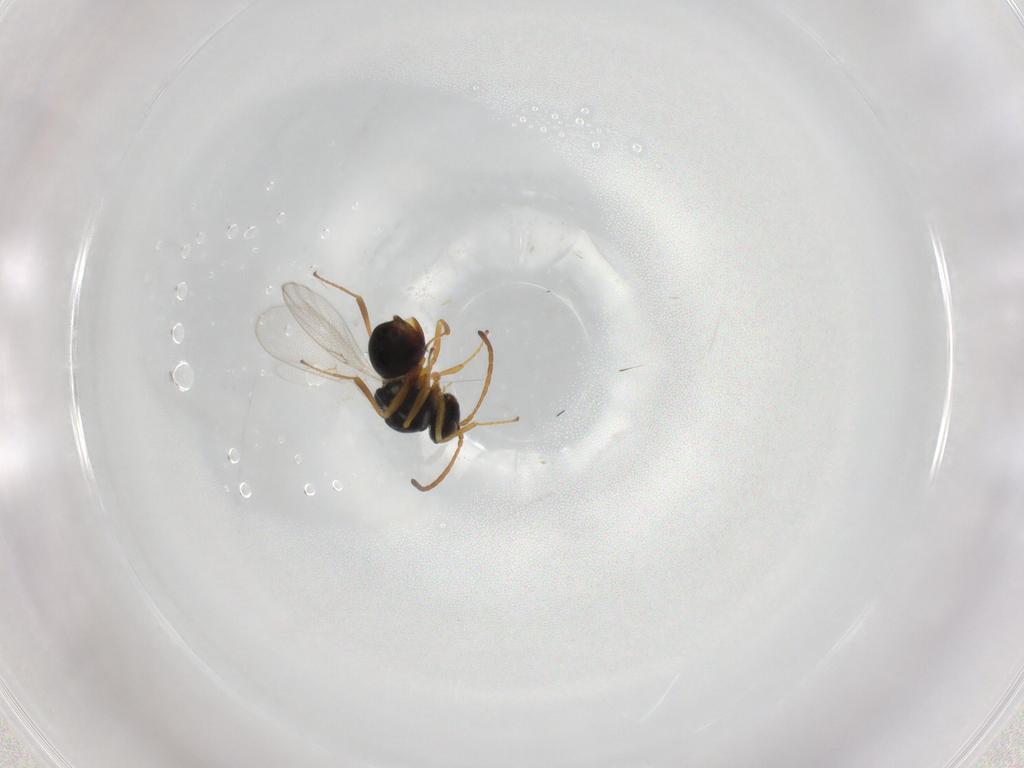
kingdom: Animalia
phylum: Arthropoda
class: Insecta
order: Hymenoptera
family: Figitidae
